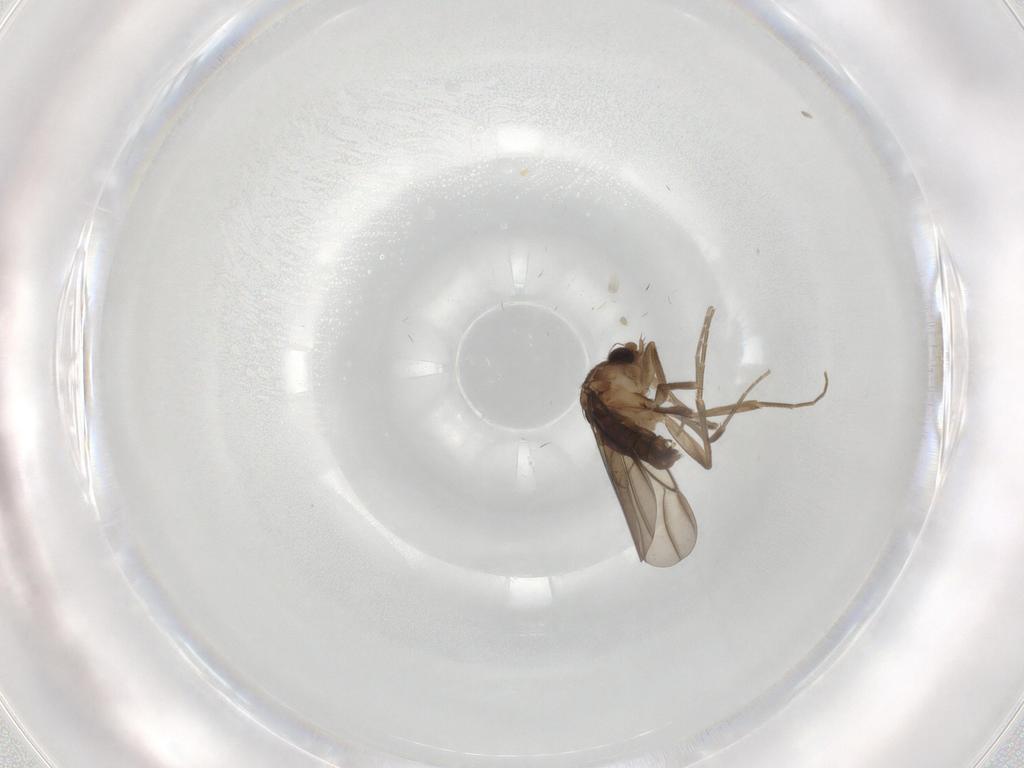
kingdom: Animalia
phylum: Arthropoda
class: Insecta
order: Diptera
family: Phoridae
